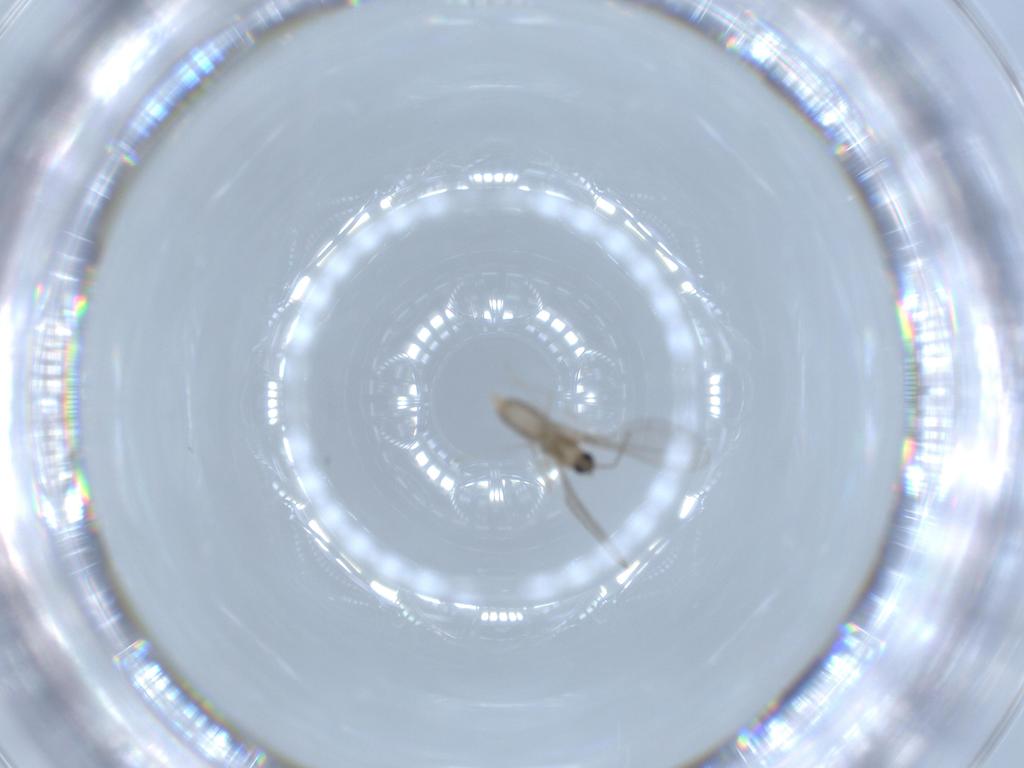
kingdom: Animalia
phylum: Arthropoda
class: Insecta
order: Diptera
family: Cecidomyiidae
